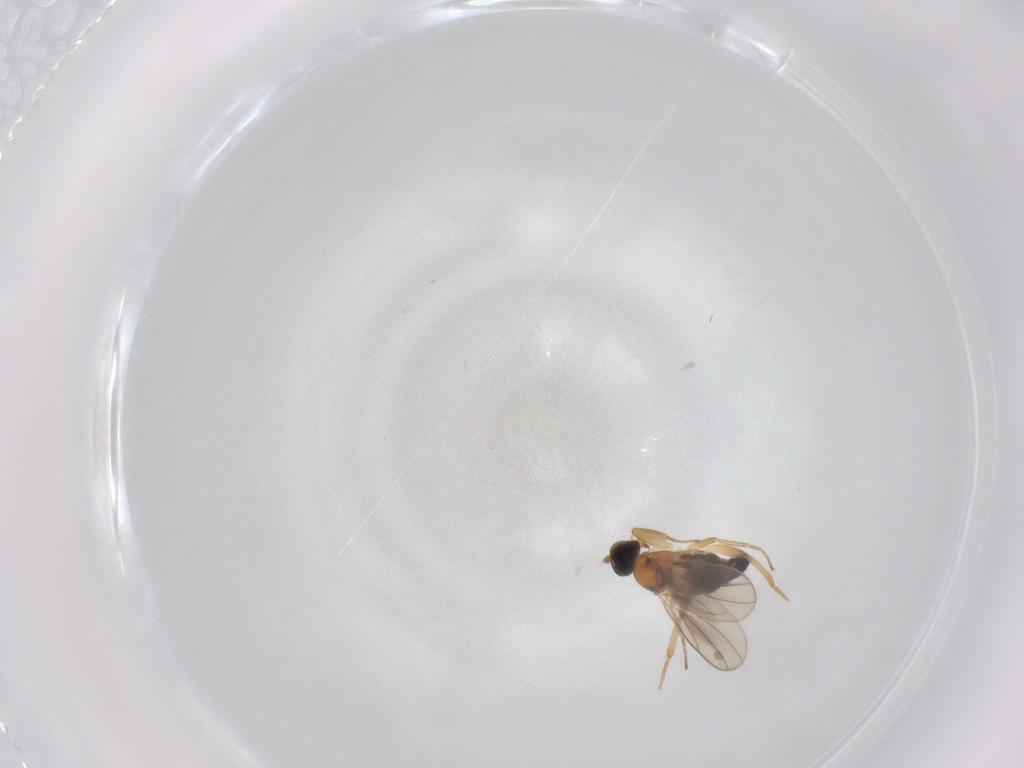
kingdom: Animalia
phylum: Arthropoda
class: Insecta
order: Diptera
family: Hybotidae
